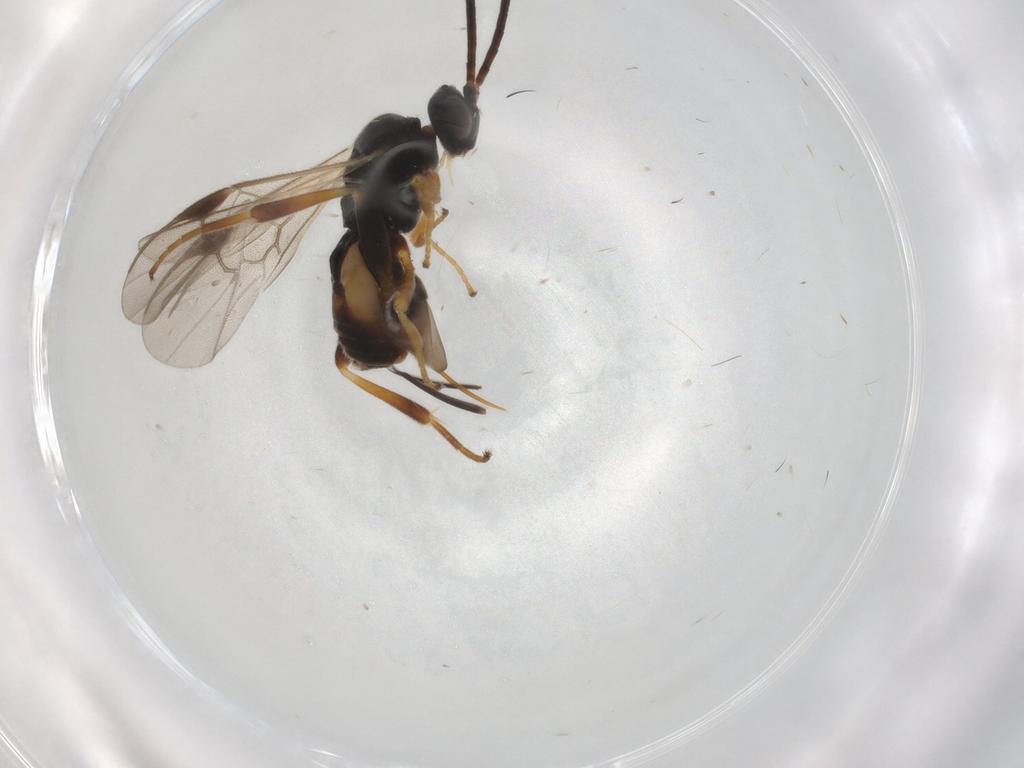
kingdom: Animalia
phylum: Arthropoda
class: Insecta
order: Hymenoptera
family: Braconidae
